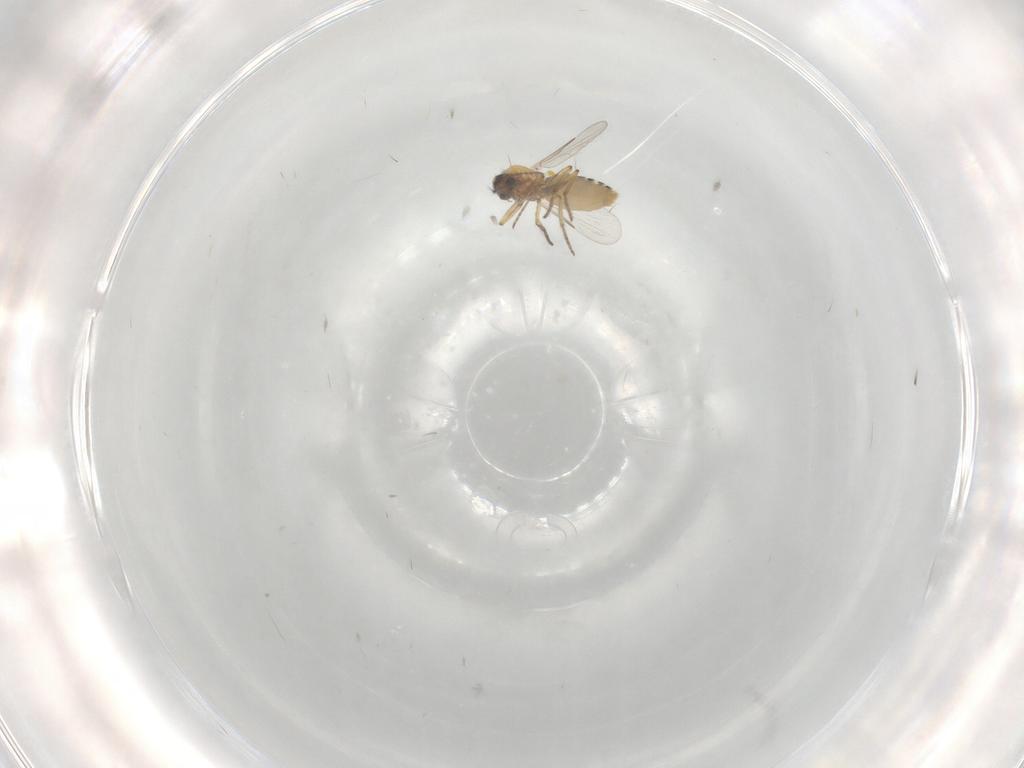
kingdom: Animalia
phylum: Arthropoda
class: Insecta
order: Diptera
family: Ceratopogonidae
